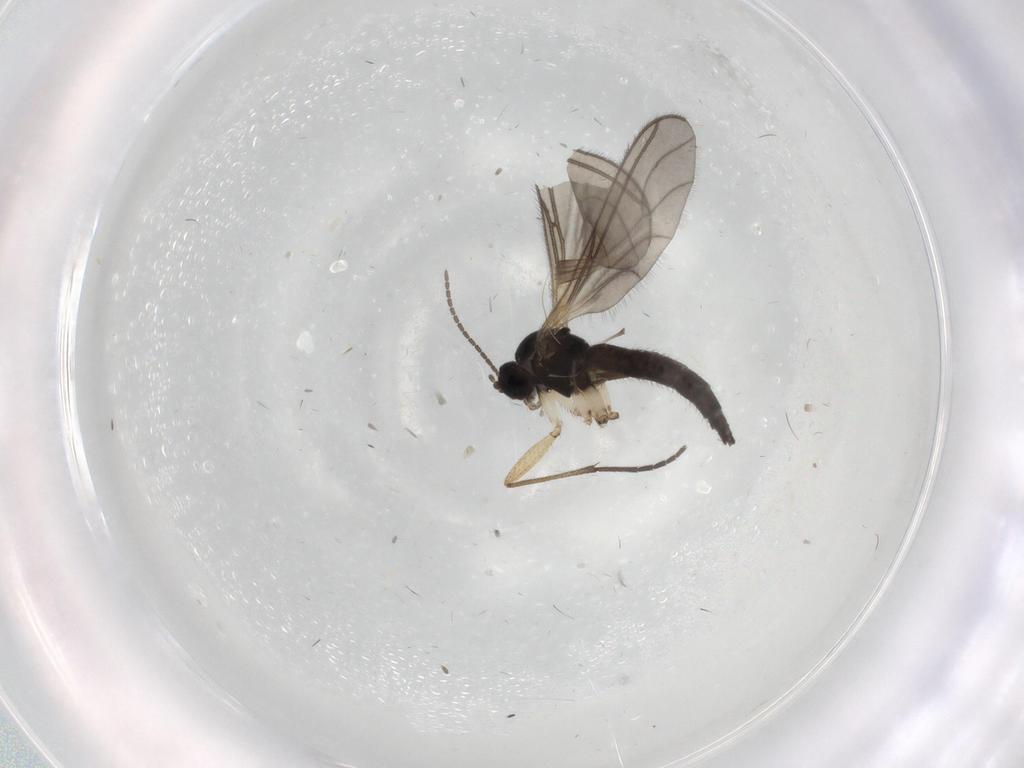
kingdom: Animalia
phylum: Arthropoda
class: Insecta
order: Diptera
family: Sciaridae
